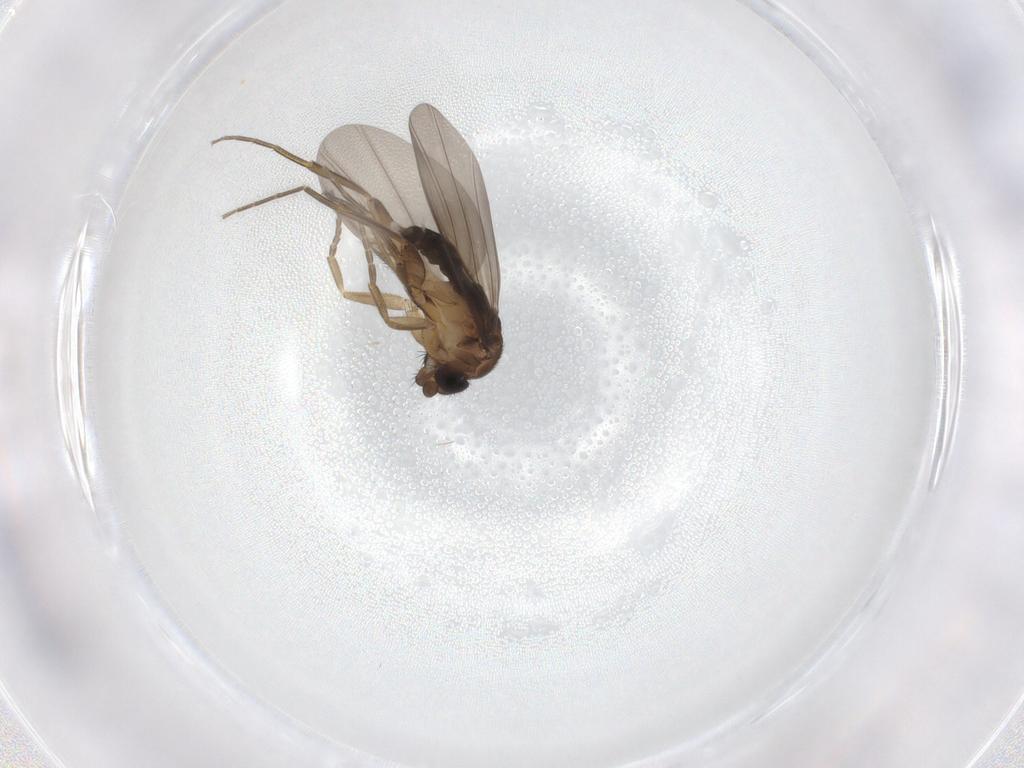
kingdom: Animalia
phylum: Arthropoda
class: Insecta
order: Diptera
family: Phoridae
